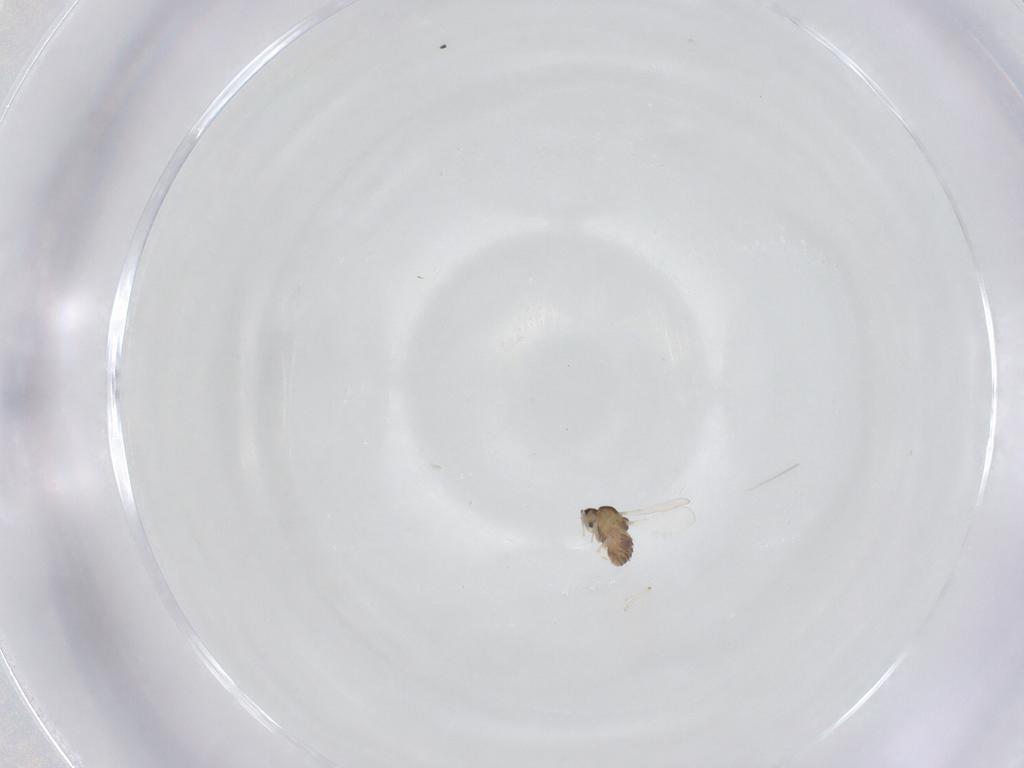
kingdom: Animalia
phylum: Arthropoda
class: Insecta
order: Diptera
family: Chironomidae
